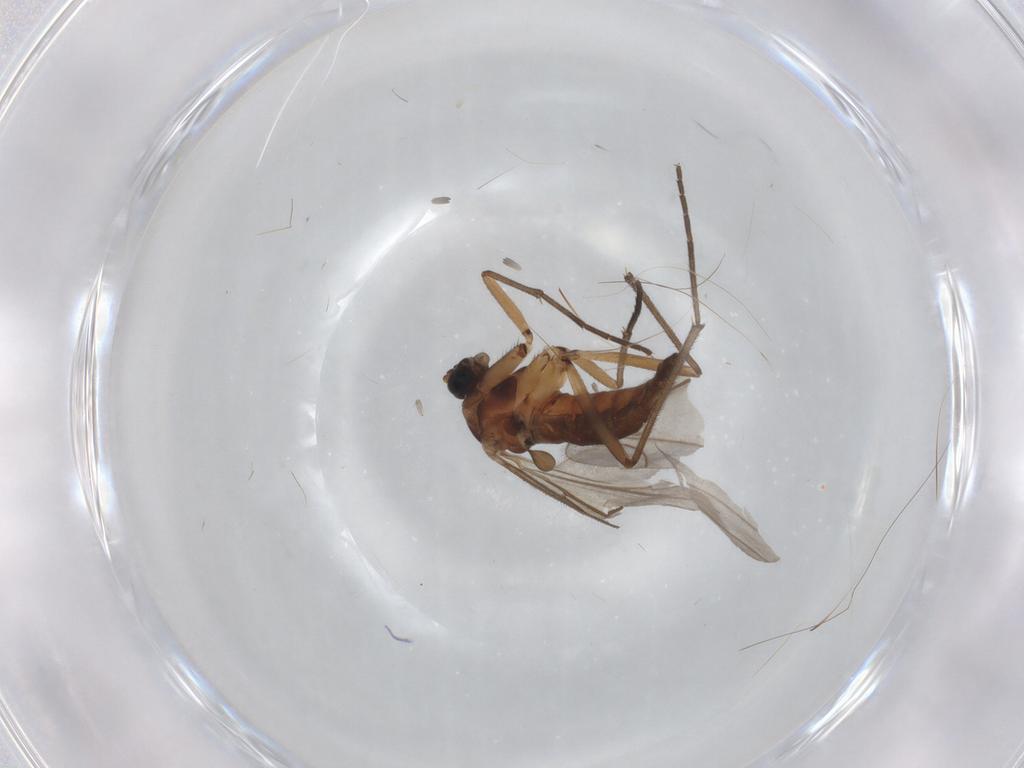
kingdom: Animalia
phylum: Arthropoda
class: Insecta
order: Diptera
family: Sciaridae
